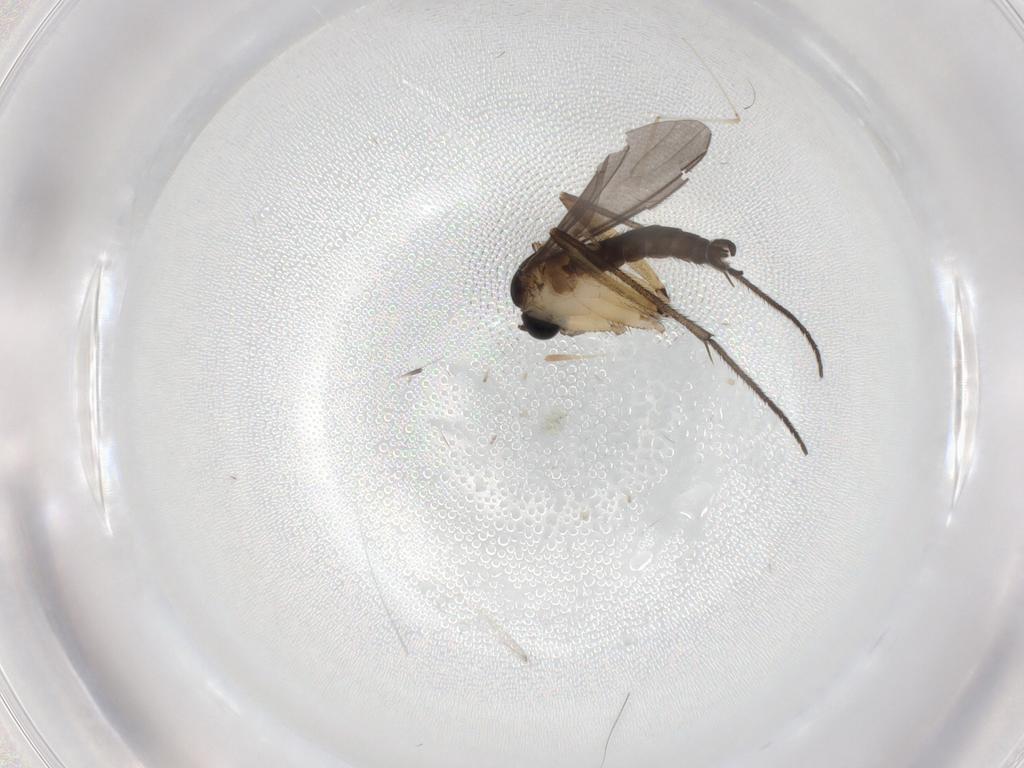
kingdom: Animalia
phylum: Arthropoda
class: Insecta
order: Diptera
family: Sciaridae
